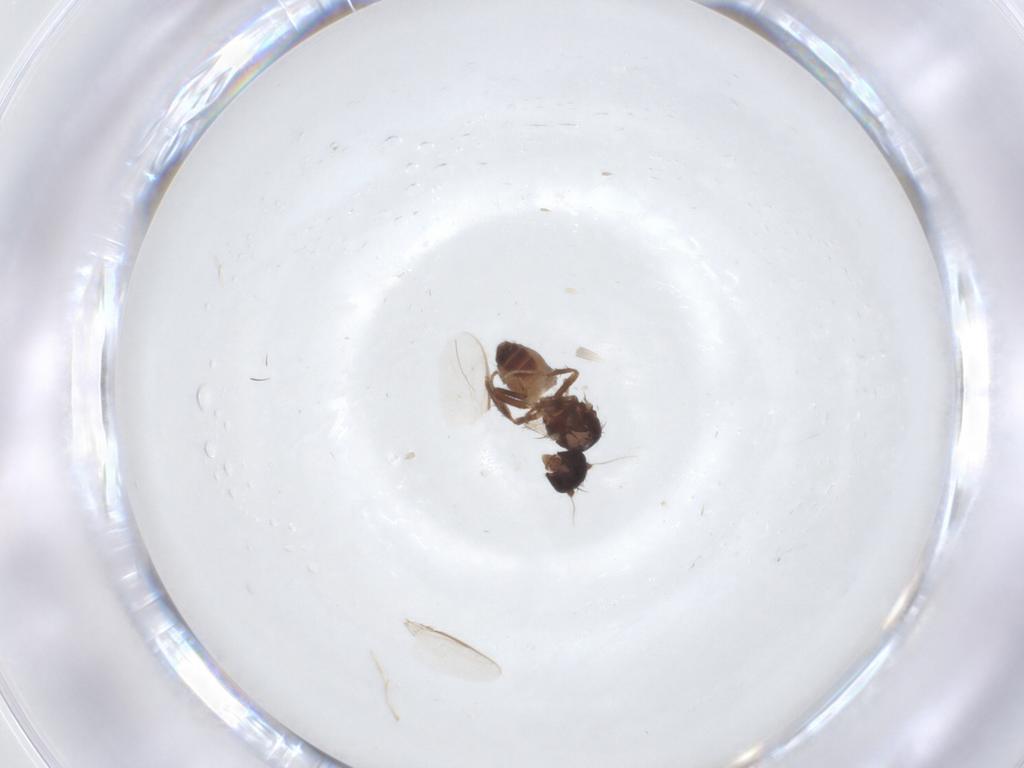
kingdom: Animalia
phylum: Arthropoda
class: Insecta
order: Diptera
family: Sphaeroceridae
